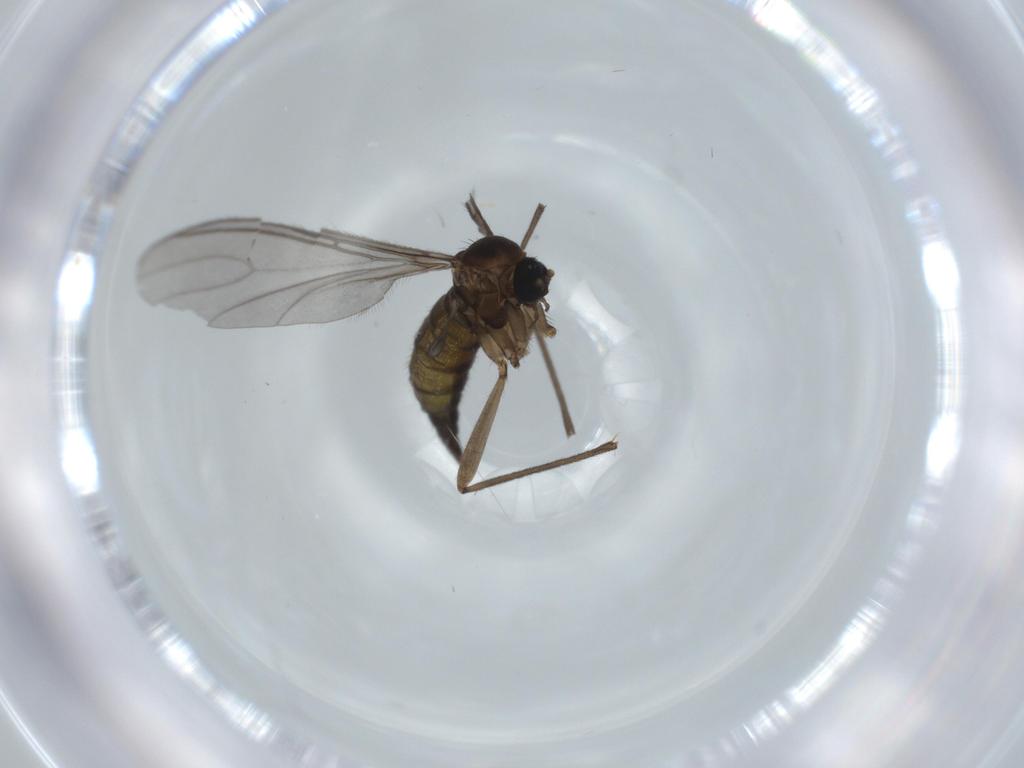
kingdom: Animalia
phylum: Arthropoda
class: Insecta
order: Diptera
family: Sciaridae
